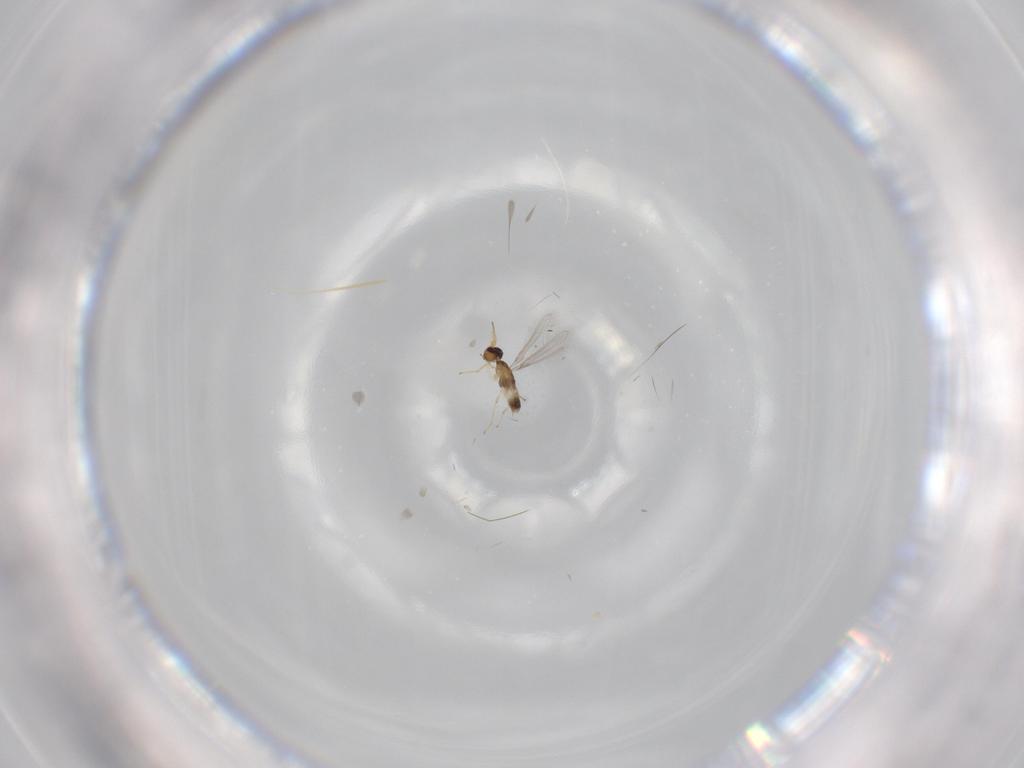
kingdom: Animalia
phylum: Arthropoda
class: Insecta
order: Hymenoptera
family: Mymaridae
